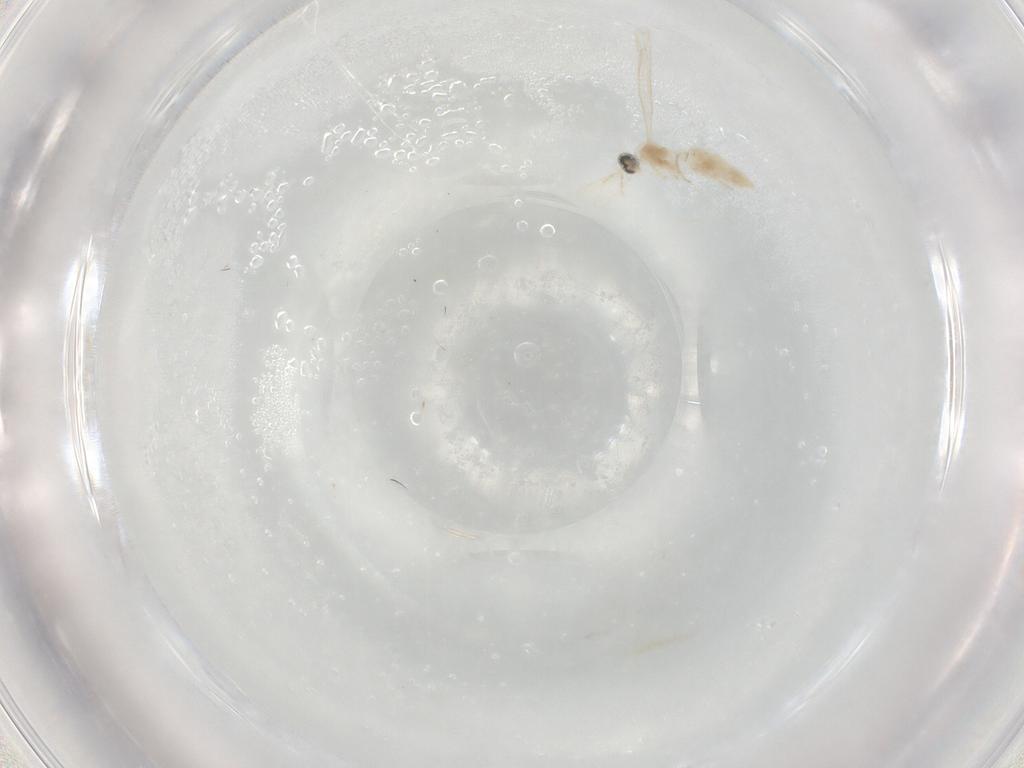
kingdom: Animalia
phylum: Arthropoda
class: Insecta
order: Diptera
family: Cecidomyiidae
